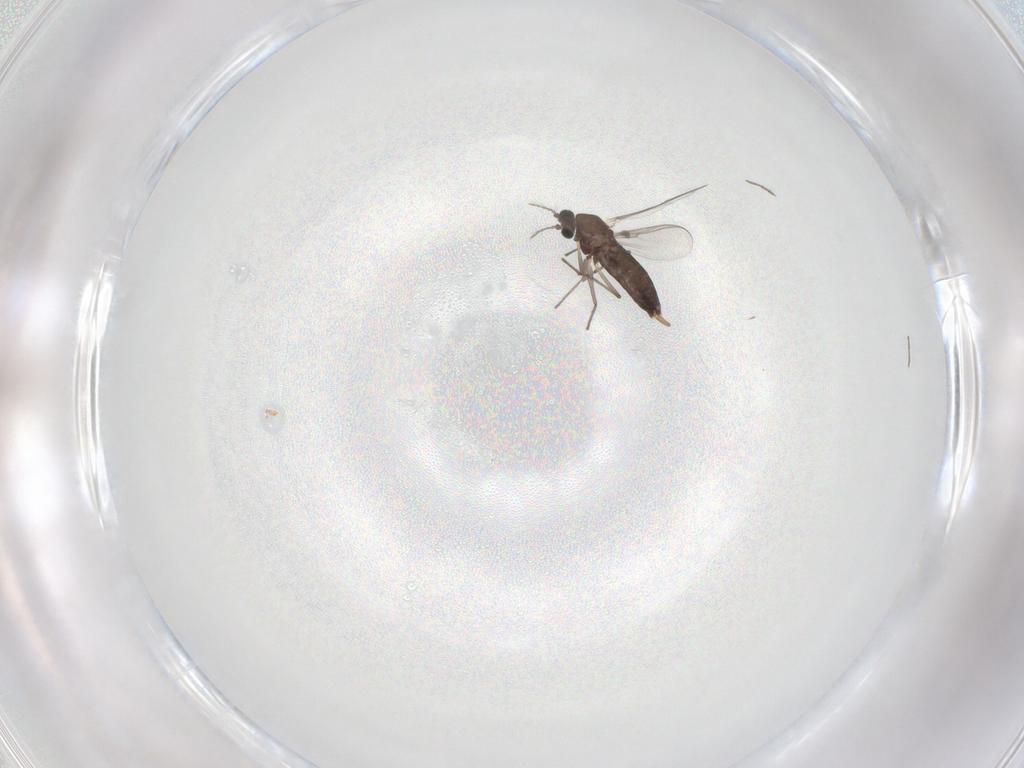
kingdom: Animalia
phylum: Arthropoda
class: Insecta
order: Diptera
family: Chironomidae
